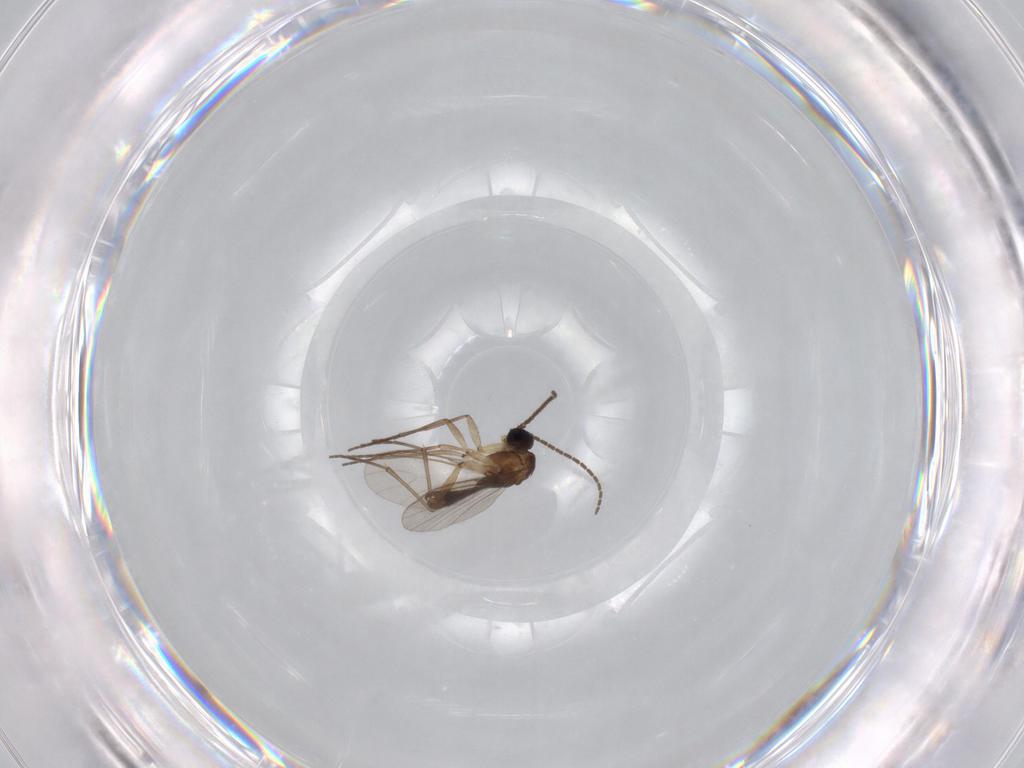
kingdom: Animalia
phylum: Arthropoda
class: Insecta
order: Diptera
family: Sciaridae
